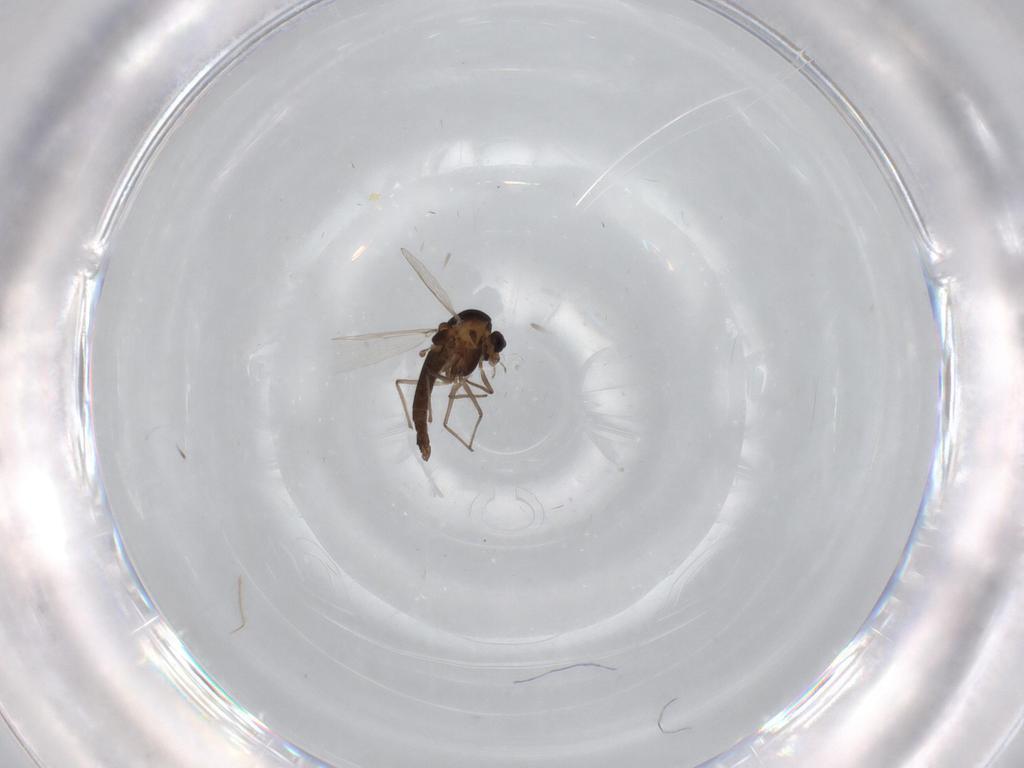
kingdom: Animalia
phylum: Arthropoda
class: Insecta
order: Diptera
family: Chironomidae
